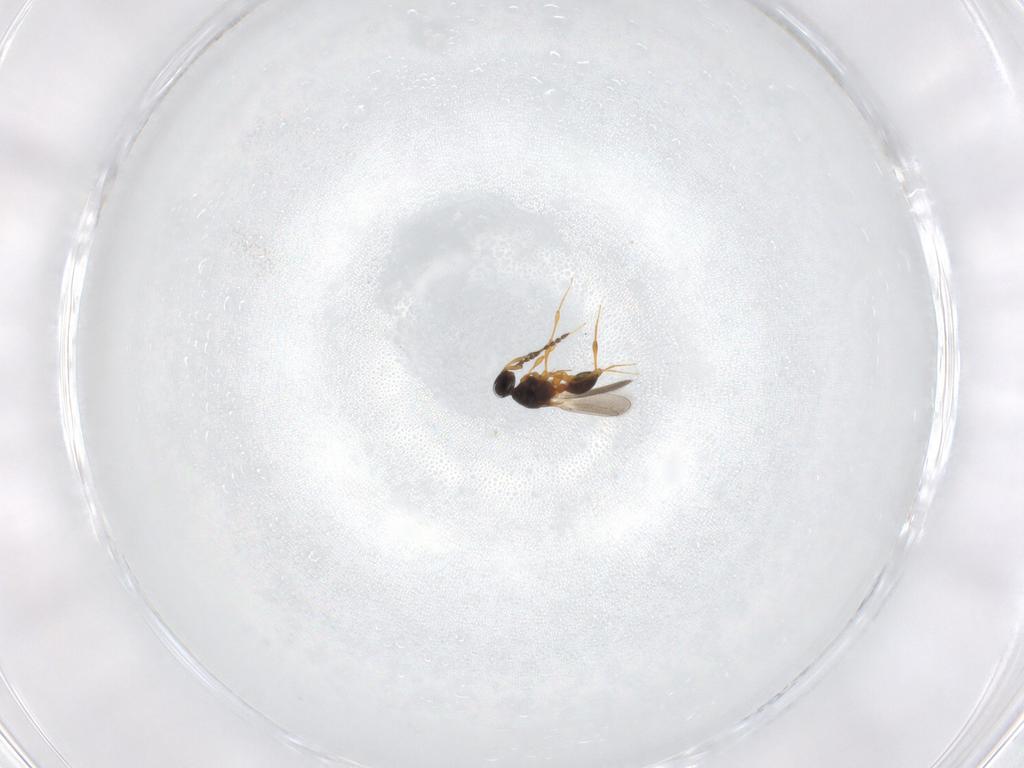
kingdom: Animalia
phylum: Arthropoda
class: Insecta
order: Hymenoptera
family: Platygastridae
